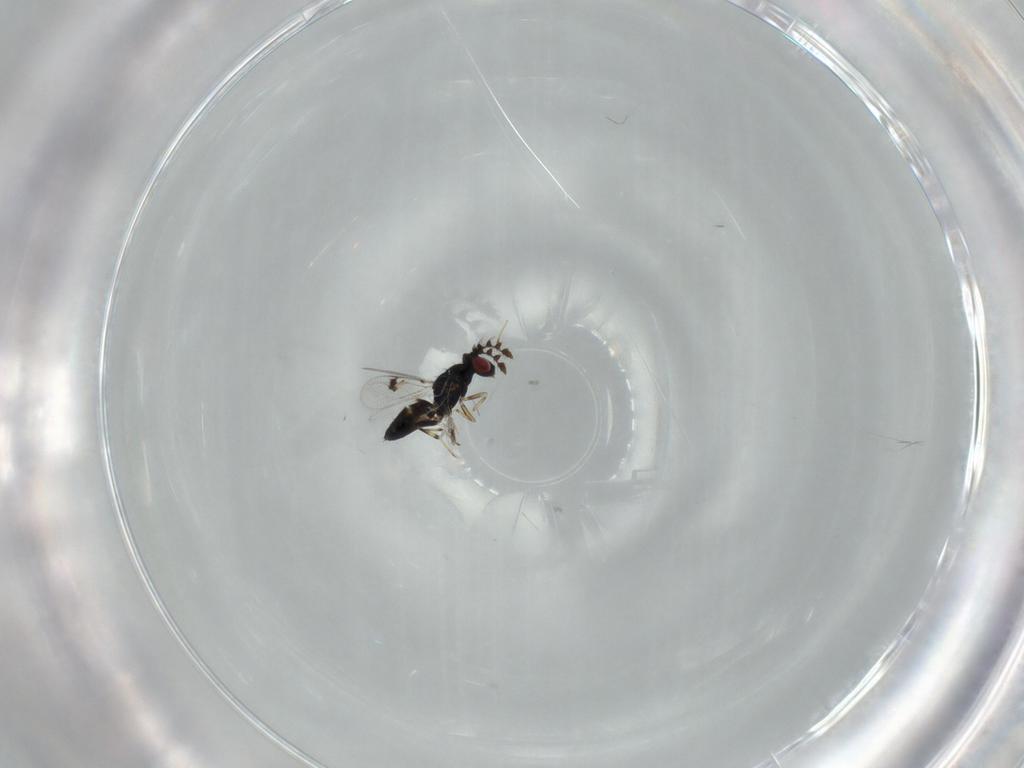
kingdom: Animalia
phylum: Arthropoda
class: Insecta
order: Hymenoptera
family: Eulophidae
